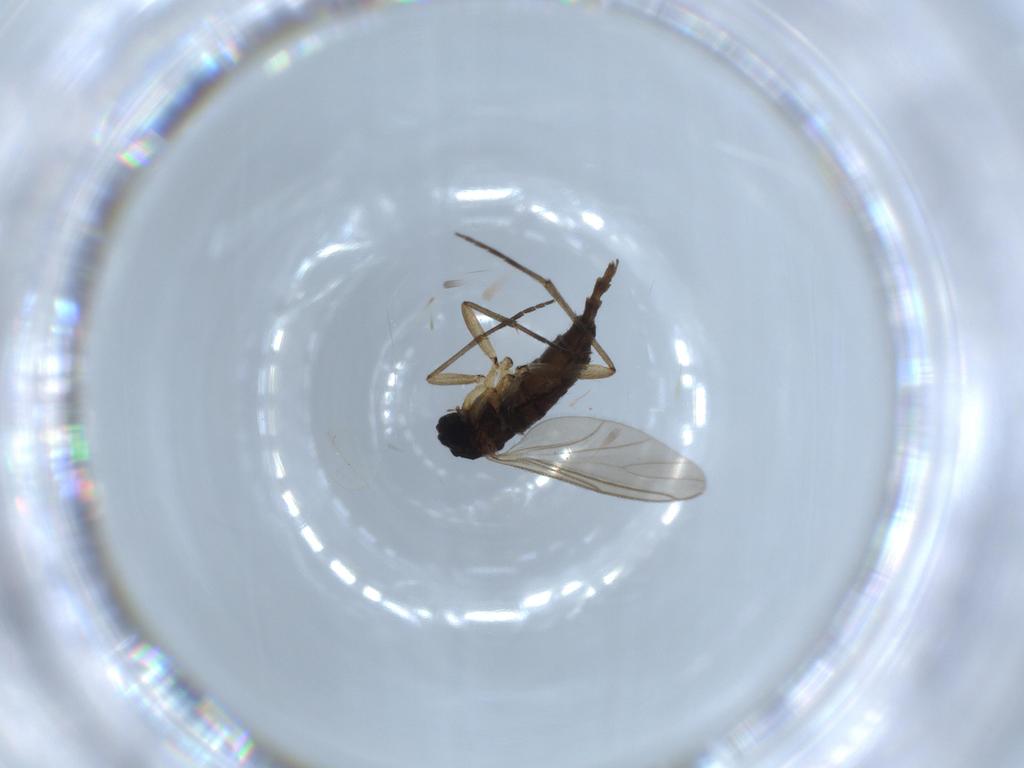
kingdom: Animalia
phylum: Arthropoda
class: Insecta
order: Diptera
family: Sciaridae
